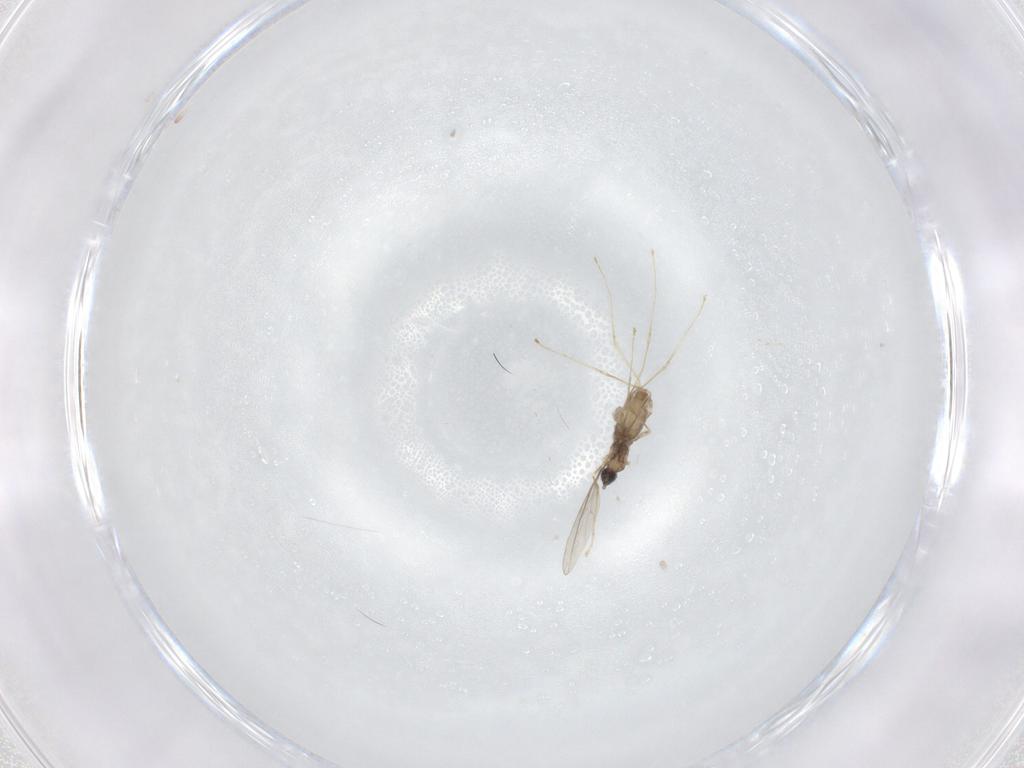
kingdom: Animalia
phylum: Arthropoda
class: Insecta
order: Diptera
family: Cecidomyiidae
